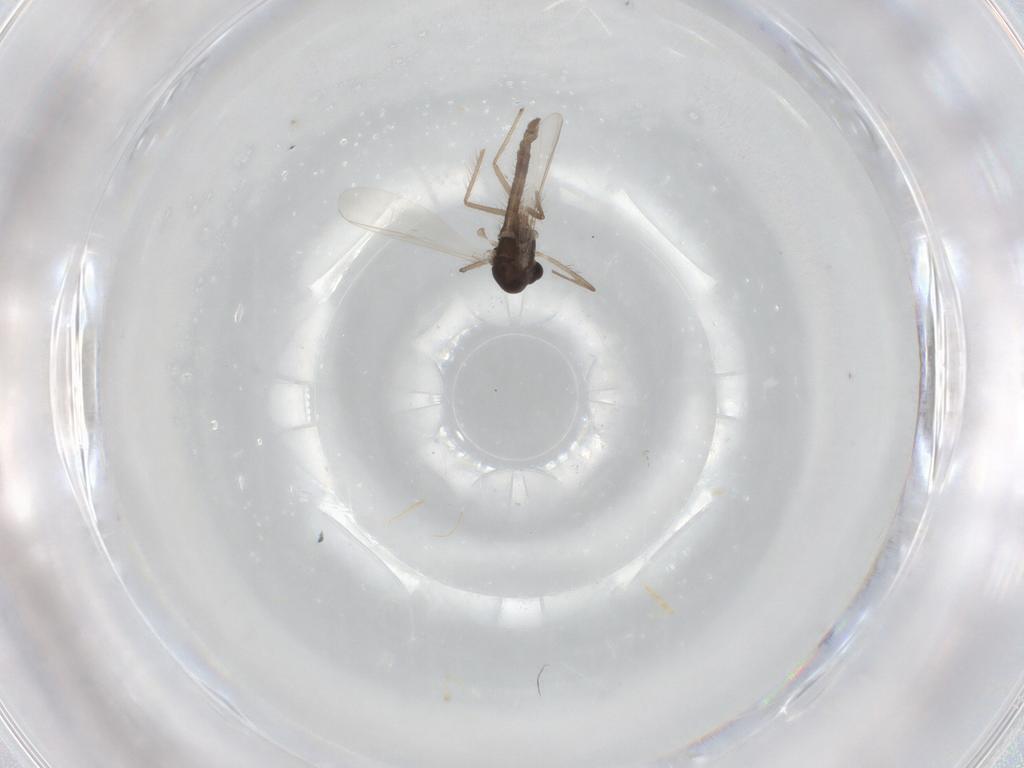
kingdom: Animalia
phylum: Arthropoda
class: Insecta
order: Diptera
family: Chironomidae
